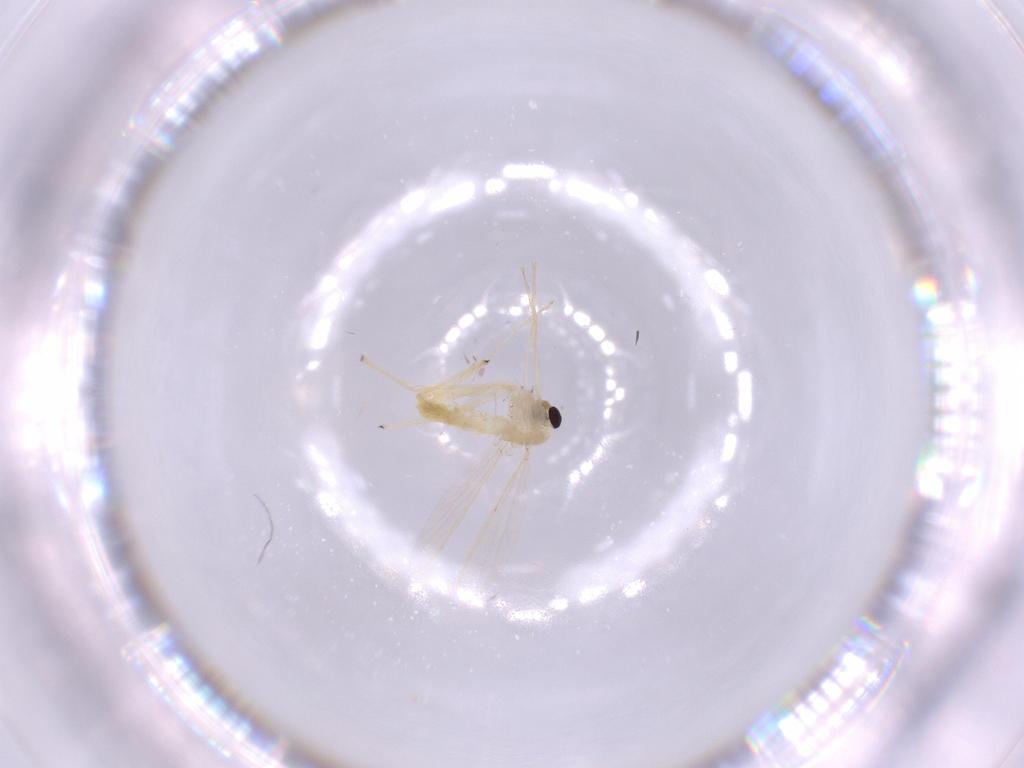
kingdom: Animalia
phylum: Arthropoda
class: Insecta
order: Diptera
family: Chironomidae
